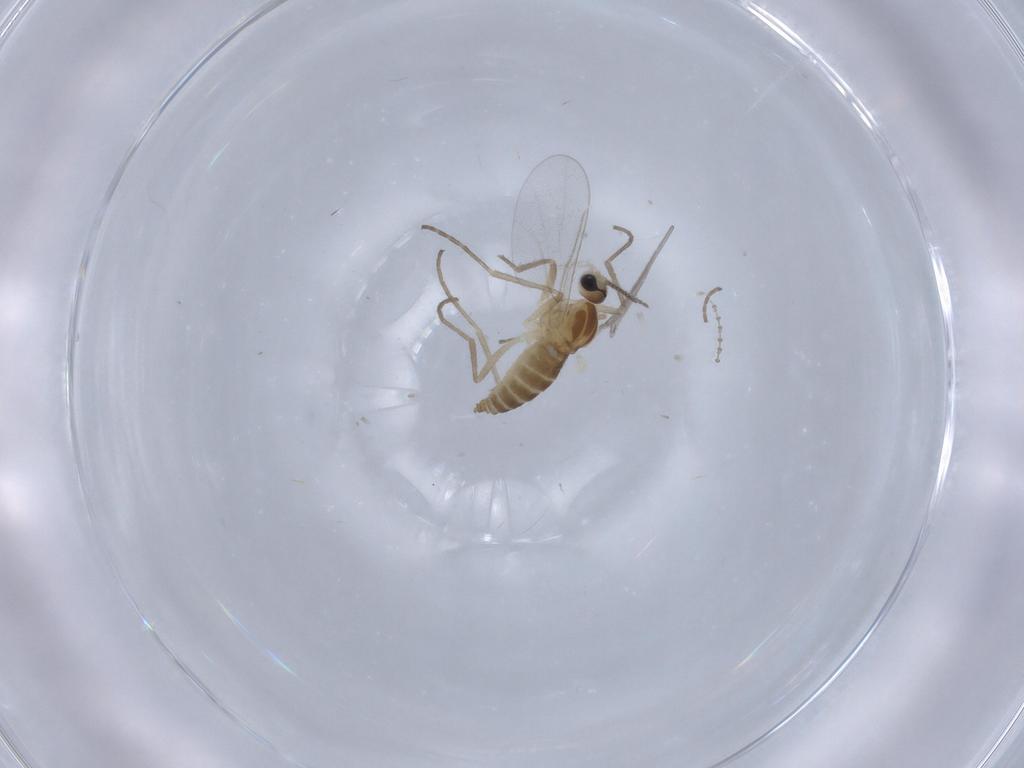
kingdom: Animalia
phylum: Arthropoda
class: Insecta
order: Diptera
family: Cecidomyiidae
